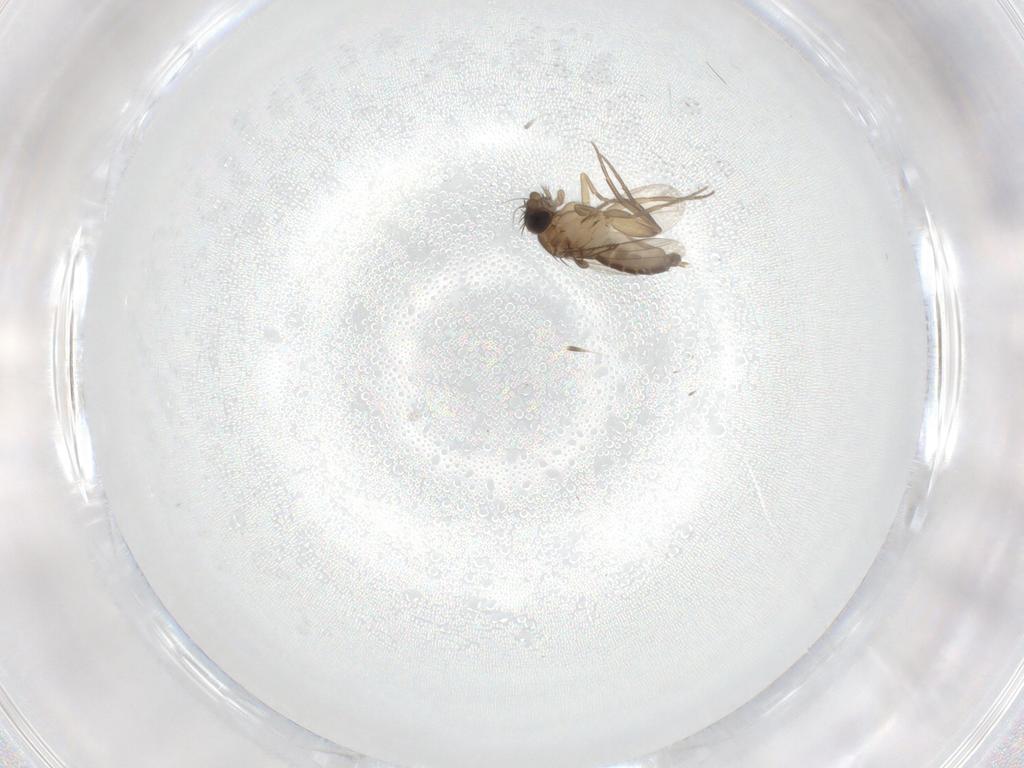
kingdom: Animalia
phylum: Arthropoda
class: Insecta
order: Diptera
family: Phoridae
